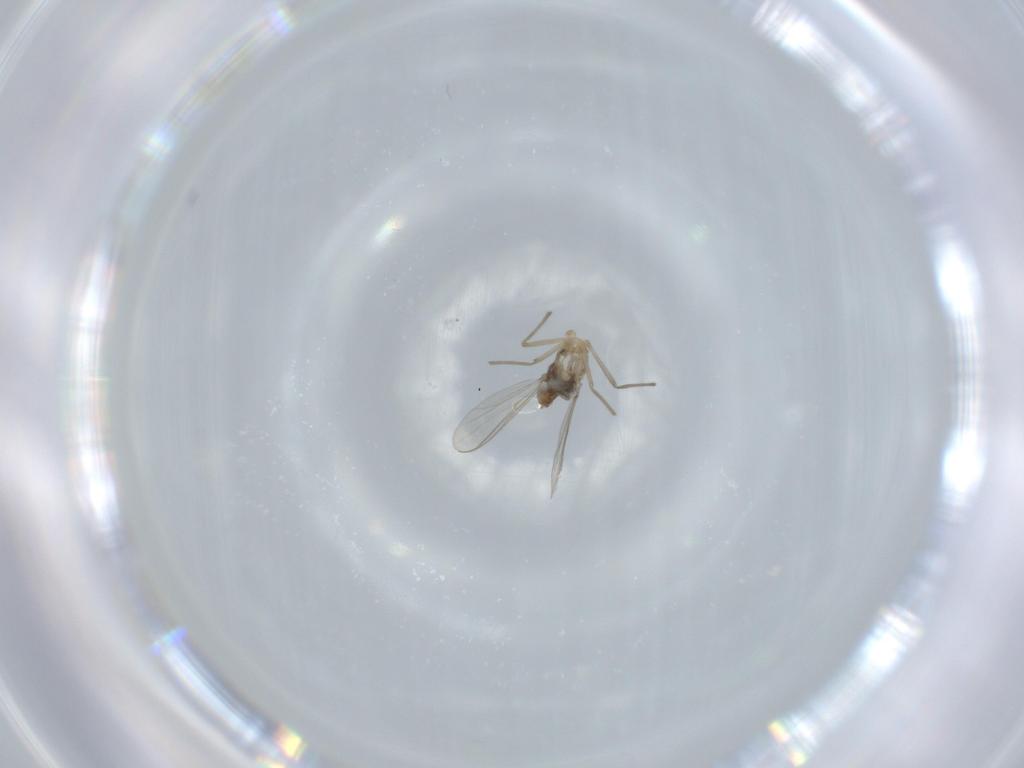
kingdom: Animalia
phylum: Arthropoda
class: Insecta
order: Diptera
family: Chironomidae
